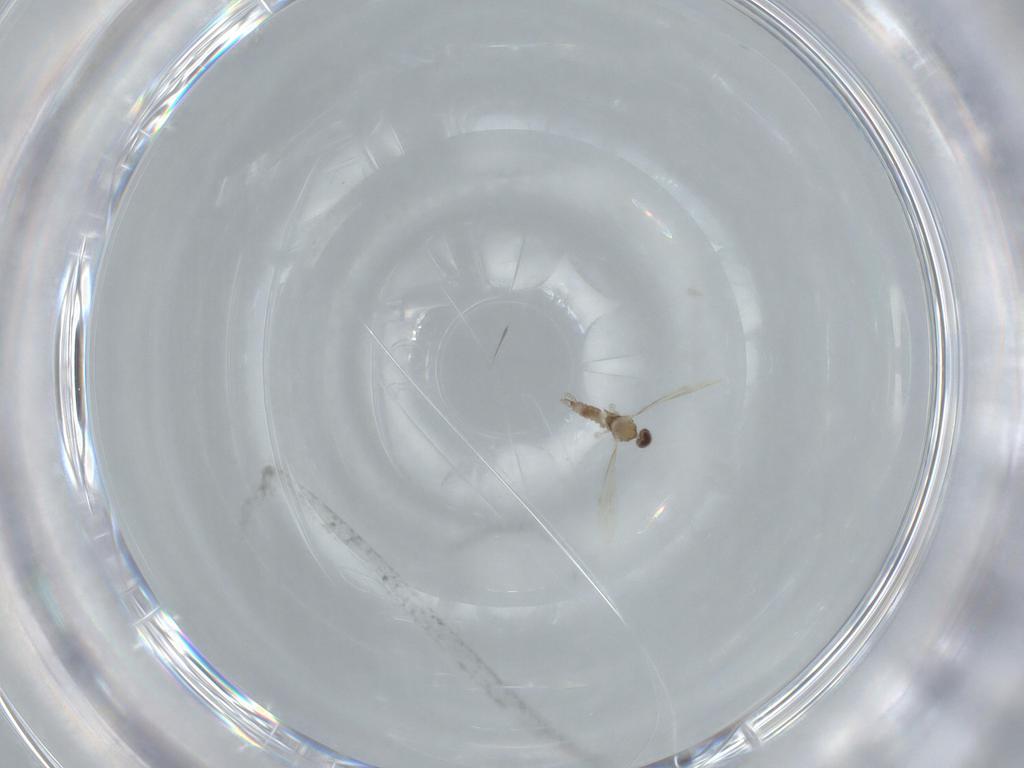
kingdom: Animalia
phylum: Arthropoda
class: Insecta
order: Diptera
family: Cecidomyiidae
